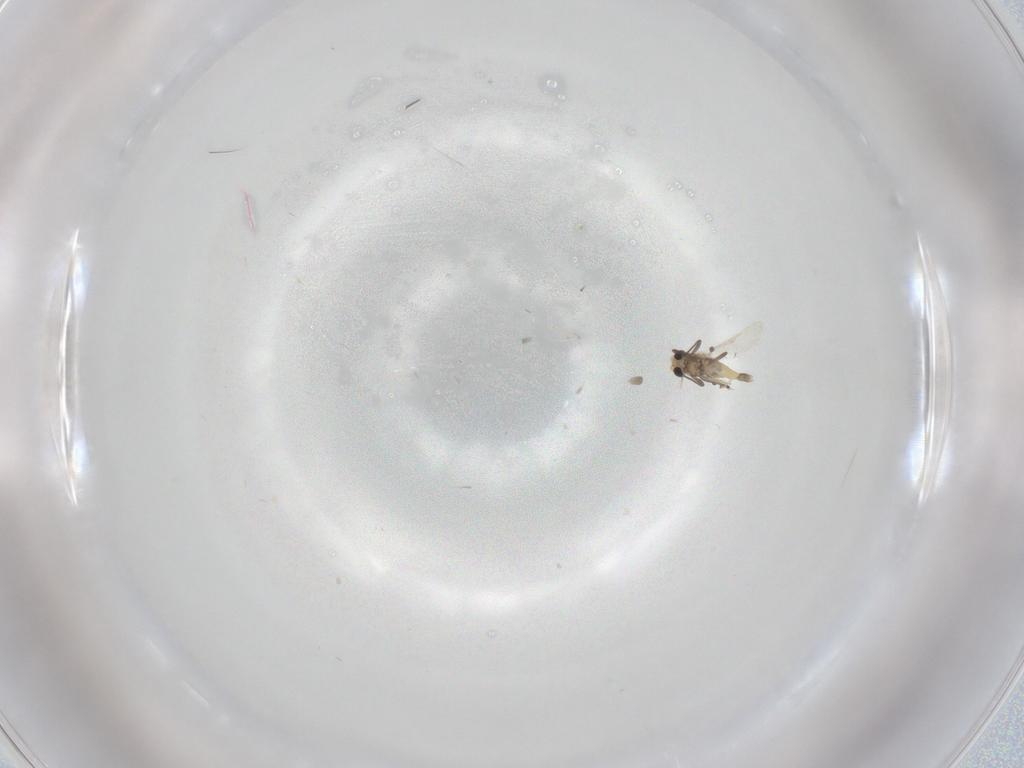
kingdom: Animalia
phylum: Arthropoda
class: Insecta
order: Diptera
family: Chironomidae
